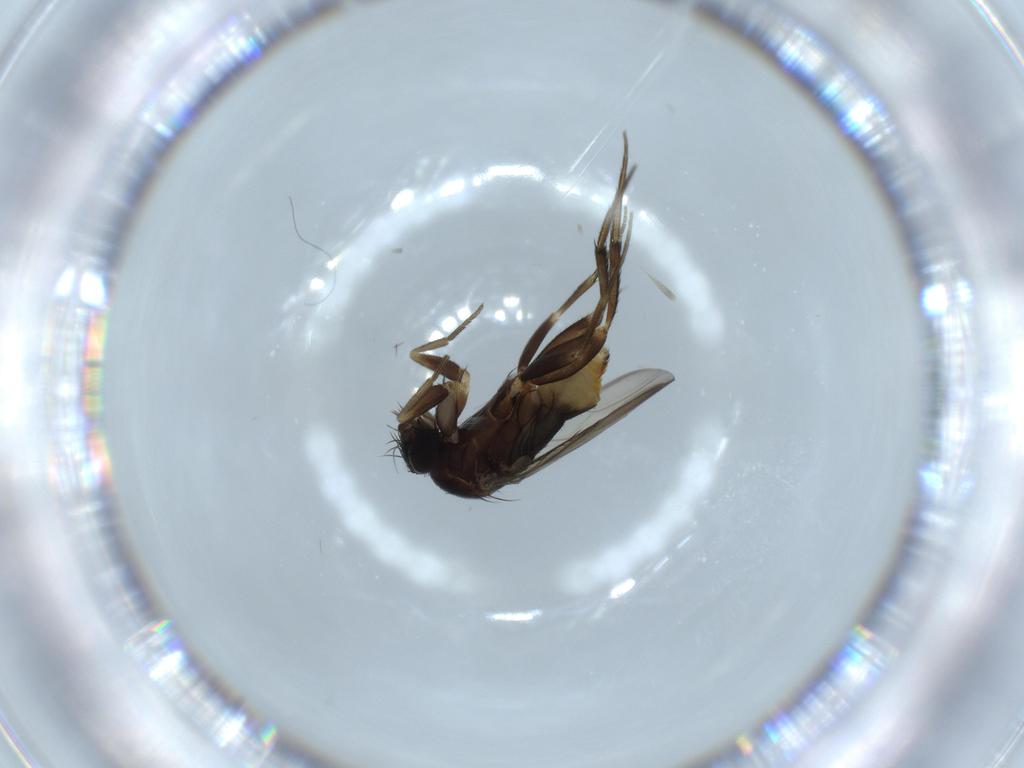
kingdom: Animalia
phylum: Arthropoda
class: Insecta
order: Diptera
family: Phoridae
